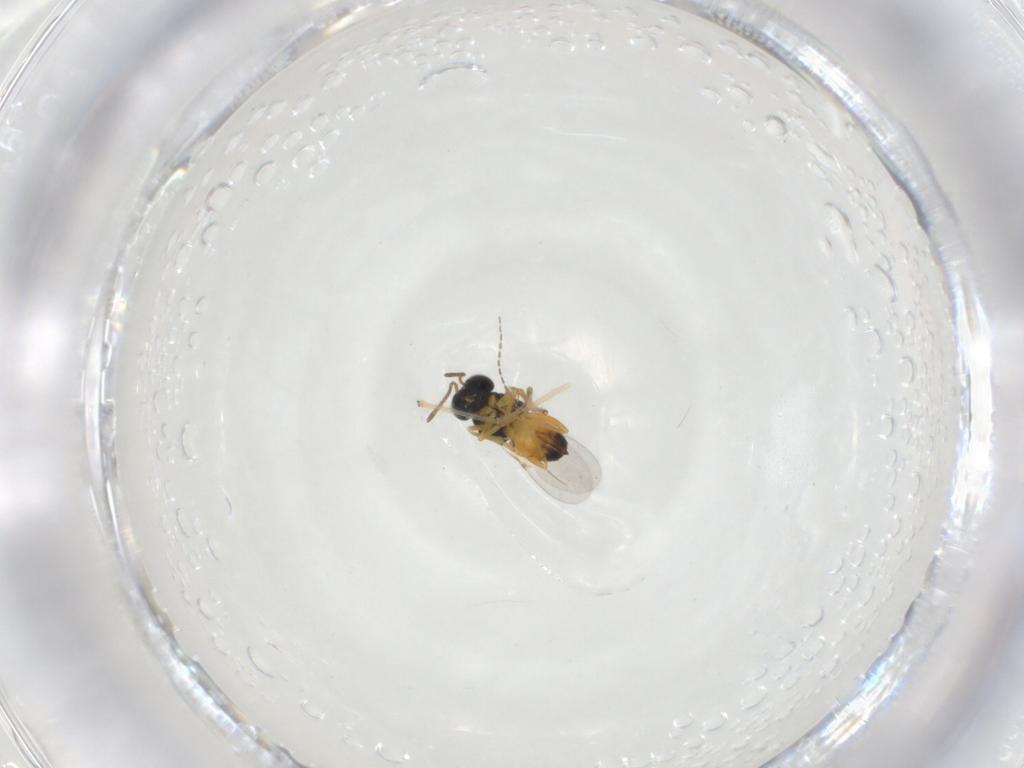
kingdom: Animalia
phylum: Arthropoda
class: Insecta
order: Hymenoptera
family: Encyrtidae
